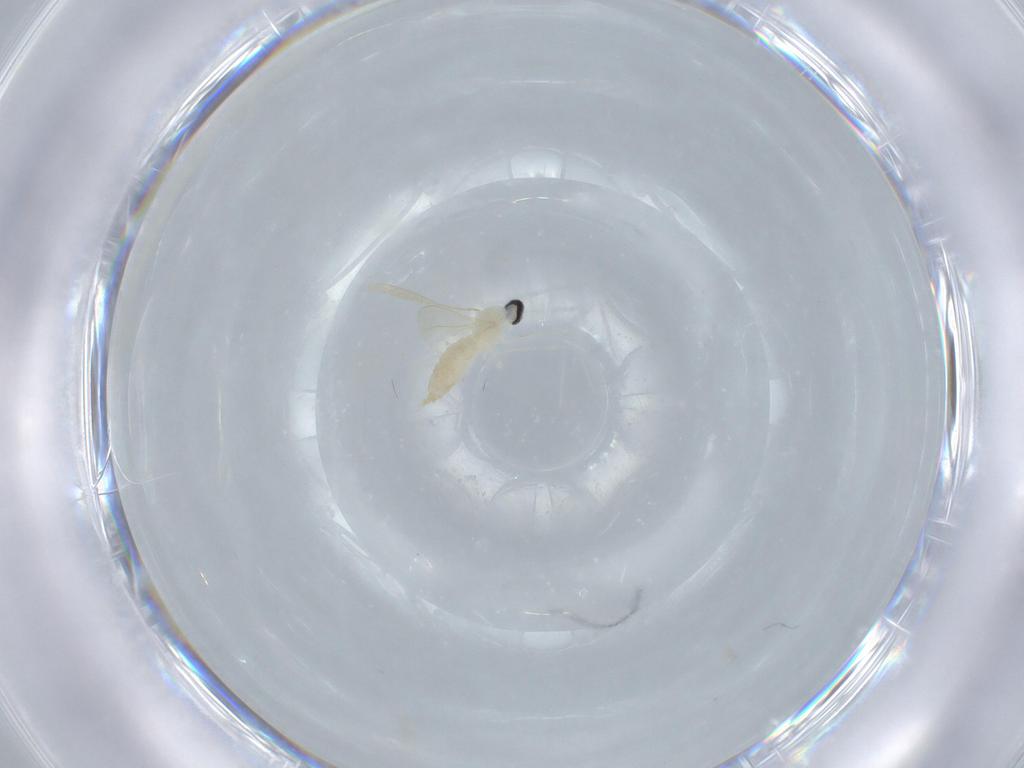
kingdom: Animalia
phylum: Arthropoda
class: Insecta
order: Diptera
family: Cecidomyiidae
